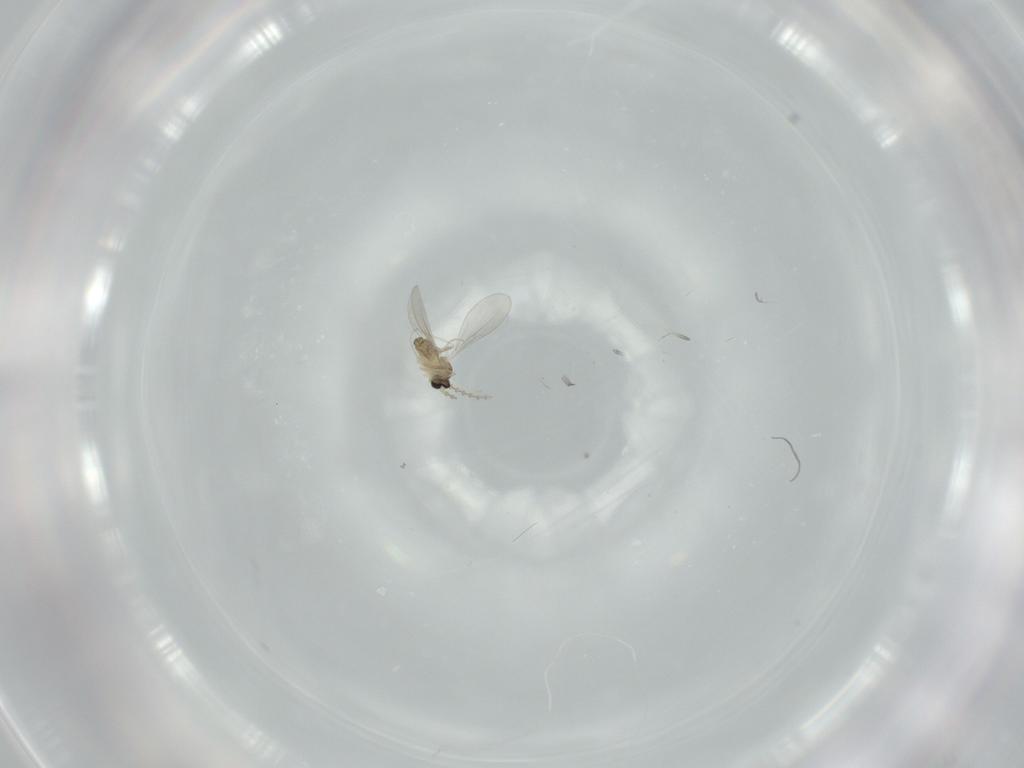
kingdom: Animalia
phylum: Arthropoda
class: Insecta
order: Diptera
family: Cecidomyiidae
